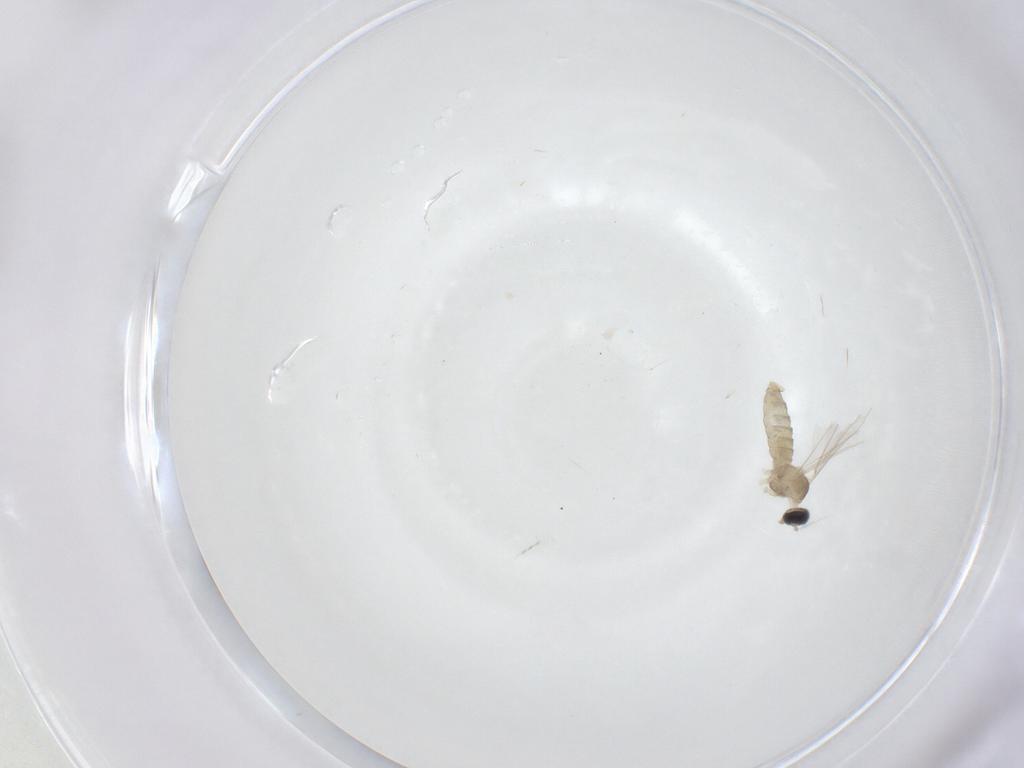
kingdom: Animalia
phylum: Arthropoda
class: Insecta
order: Diptera
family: Cecidomyiidae
